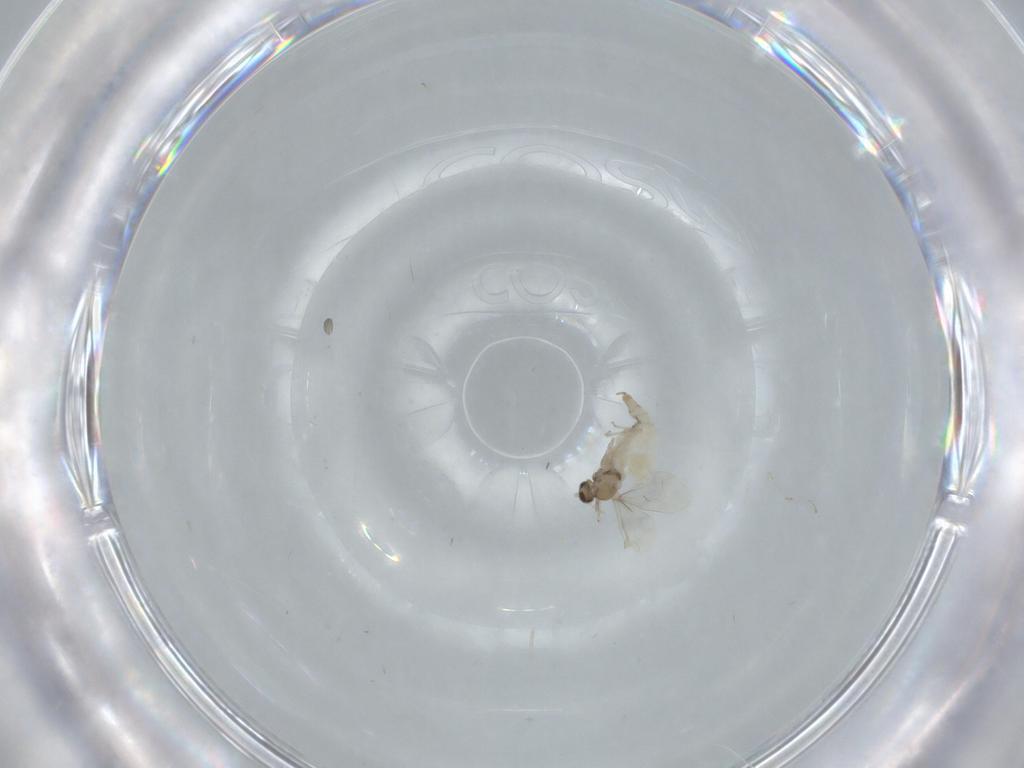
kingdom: Animalia
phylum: Arthropoda
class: Insecta
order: Diptera
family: Cecidomyiidae
